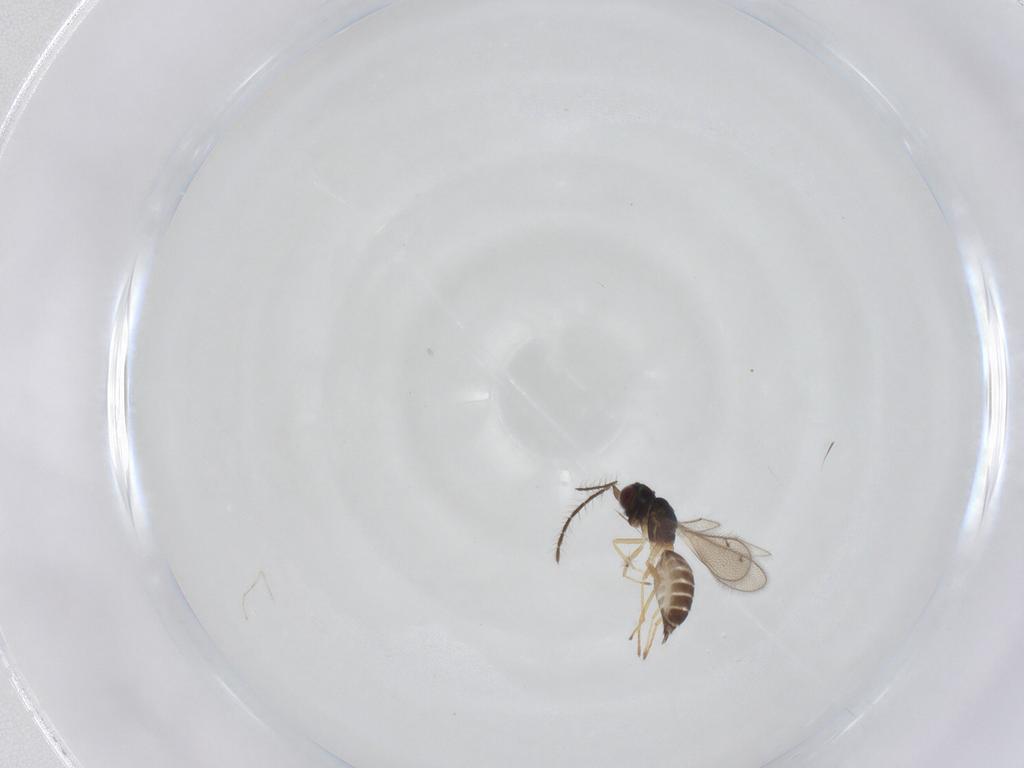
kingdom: Animalia
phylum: Arthropoda
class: Insecta
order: Hymenoptera
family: Eulophidae
